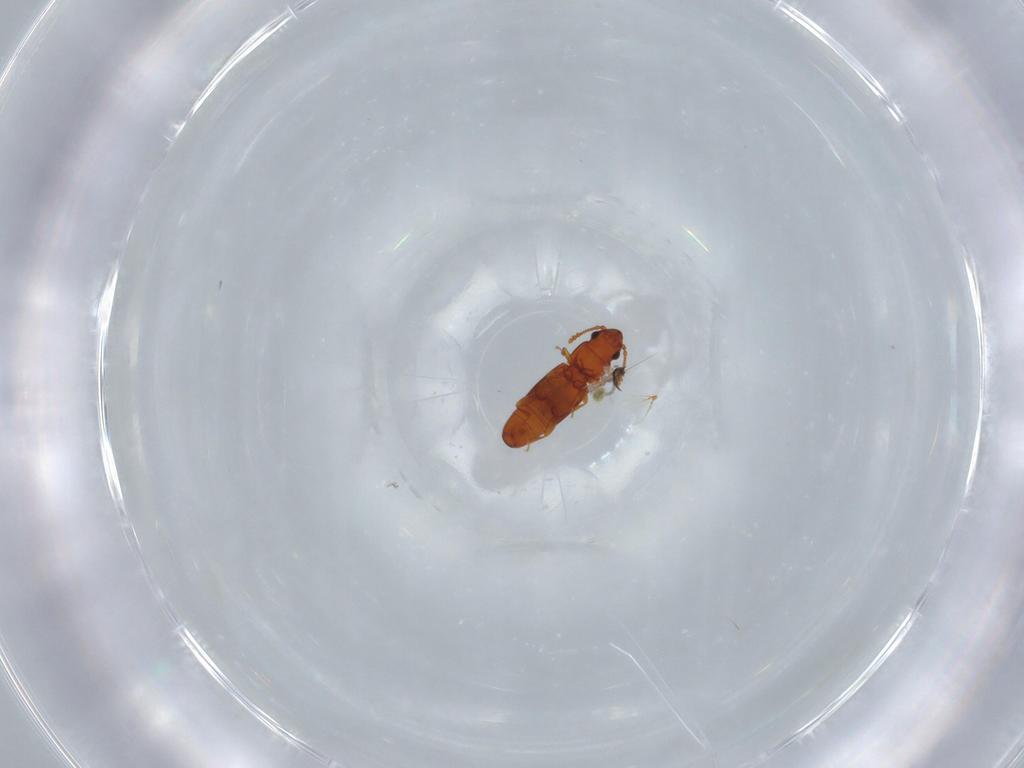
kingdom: Animalia
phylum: Arthropoda
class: Insecta
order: Coleoptera
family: Smicripidae
